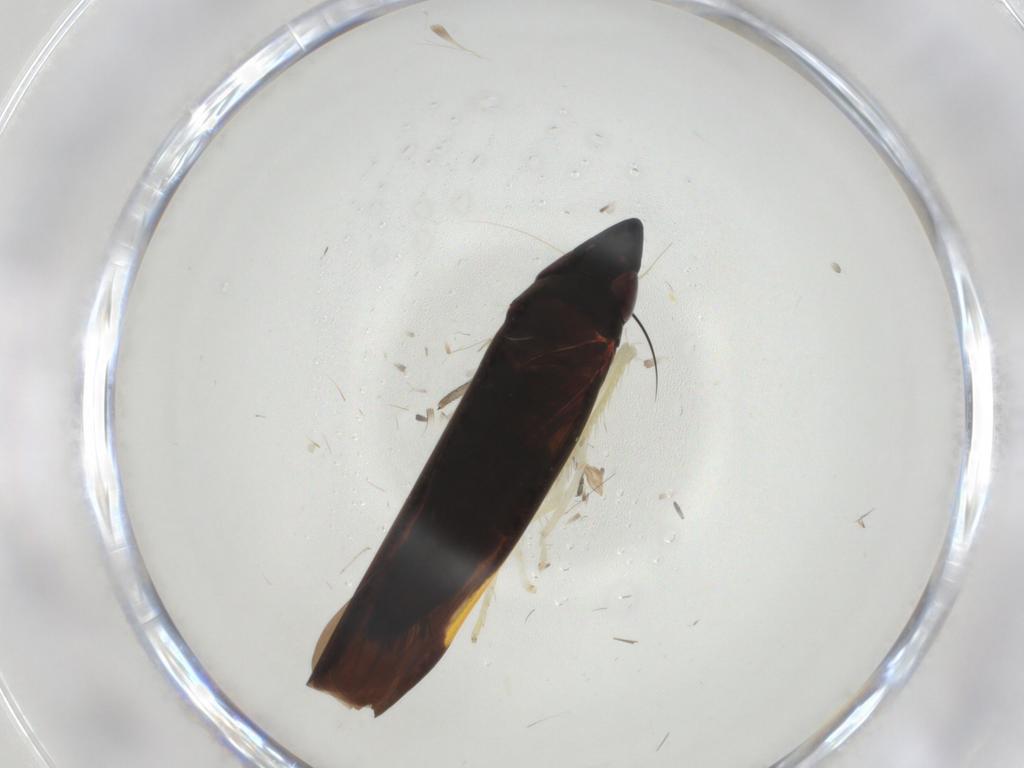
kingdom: Animalia
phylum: Arthropoda
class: Insecta
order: Hemiptera
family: Cicadellidae
